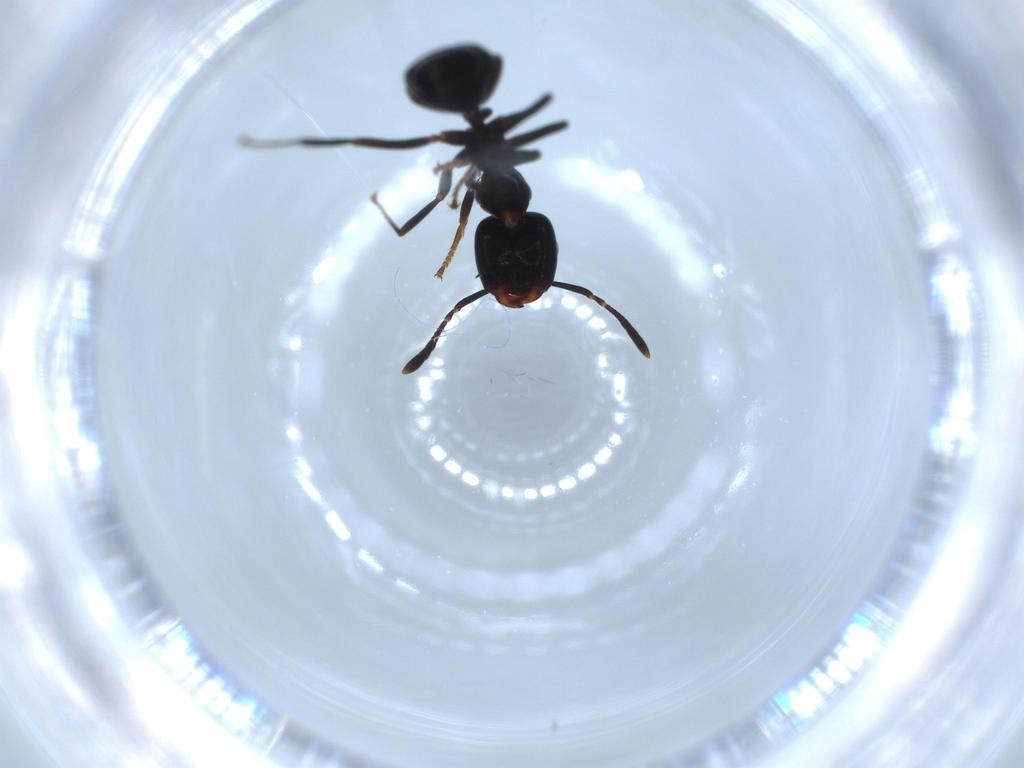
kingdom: Animalia
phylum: Arthropoda
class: Insecta
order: Hymenoptera
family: Formicidae
